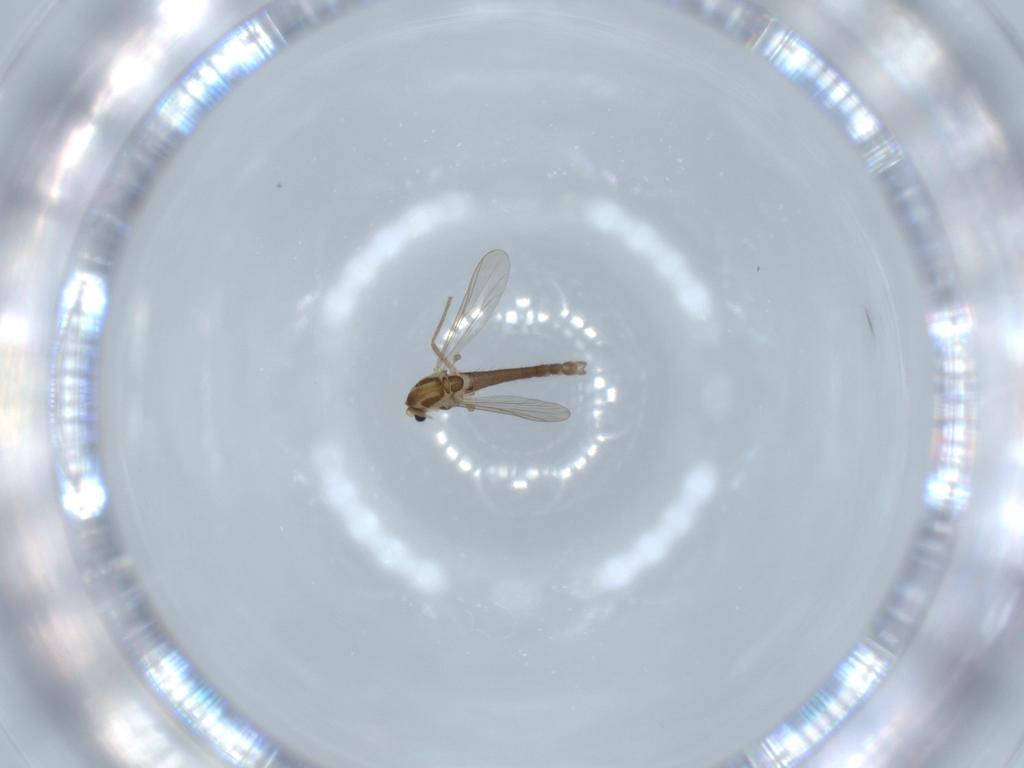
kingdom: Animalia
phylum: Arthropoda
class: Insecta
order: Diptera
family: Chironomidae
